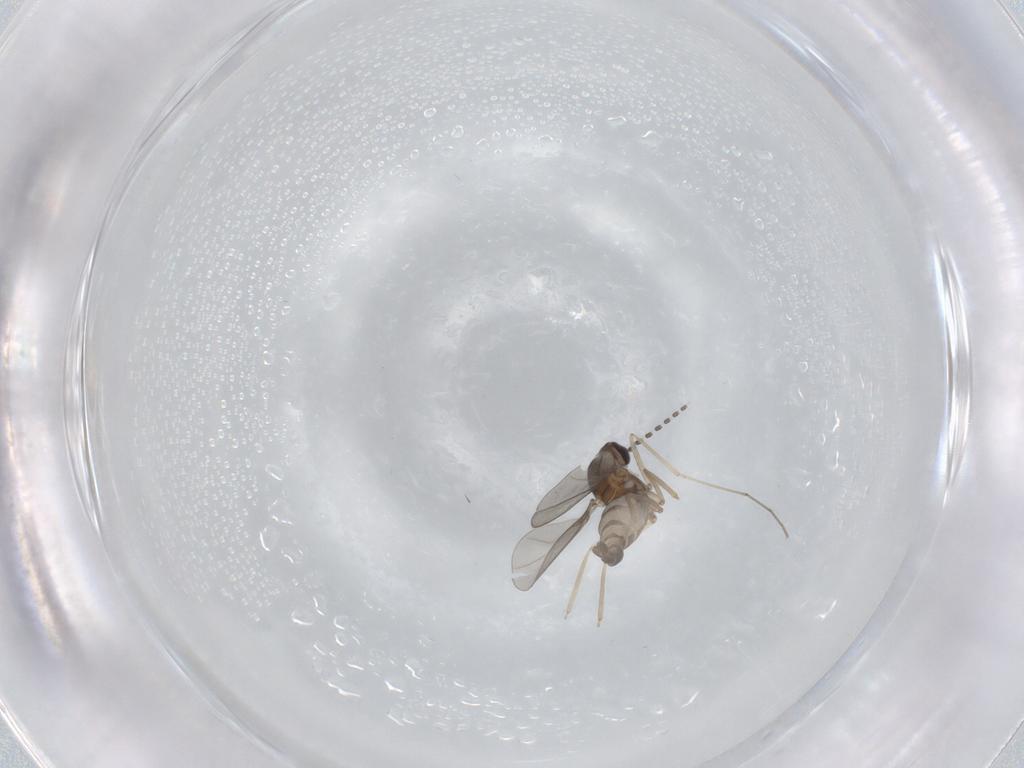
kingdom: Animalia
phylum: Arthropoda
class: Insecta
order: Diptera
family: Cecidomyiidae
